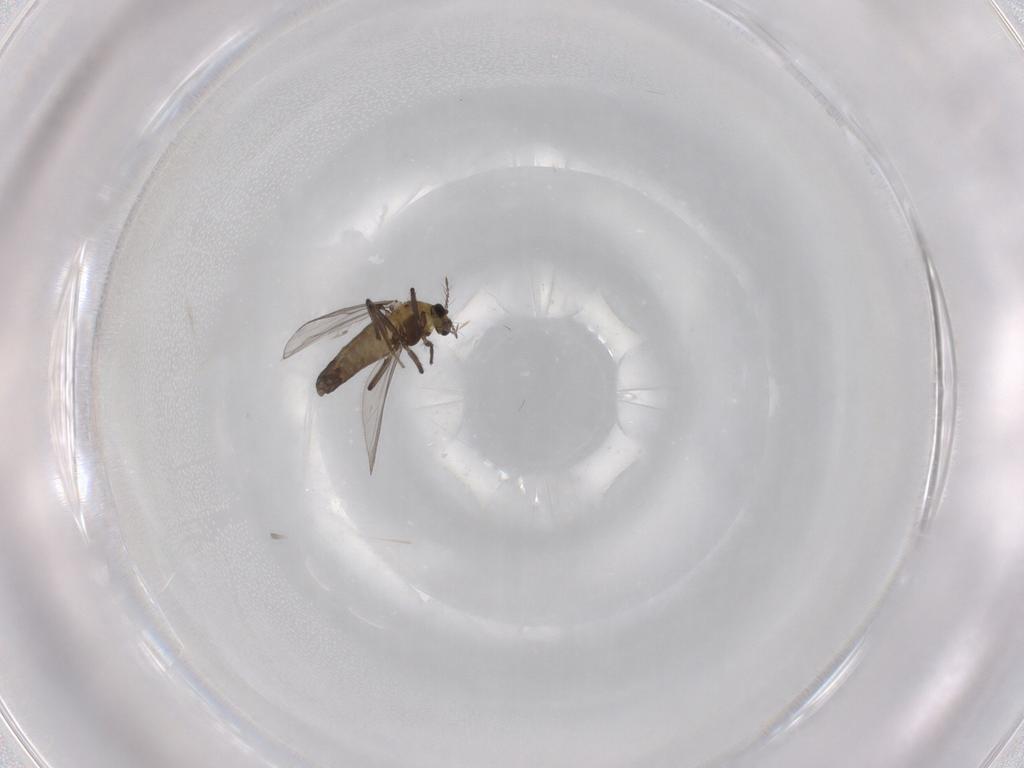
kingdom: Animalia
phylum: Arthropoda
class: Insecta
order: Diptera
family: Chironomidae
